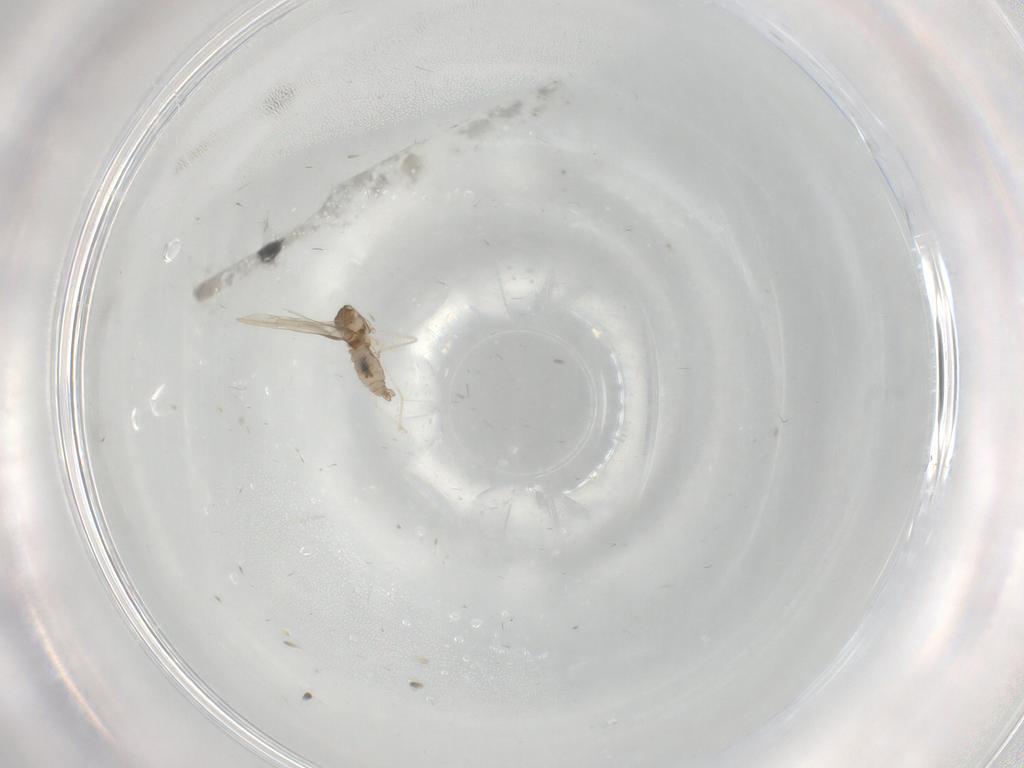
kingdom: Animalia
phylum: Arthropoda
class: Insecta
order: Diptera
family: Cecidomyiidae
